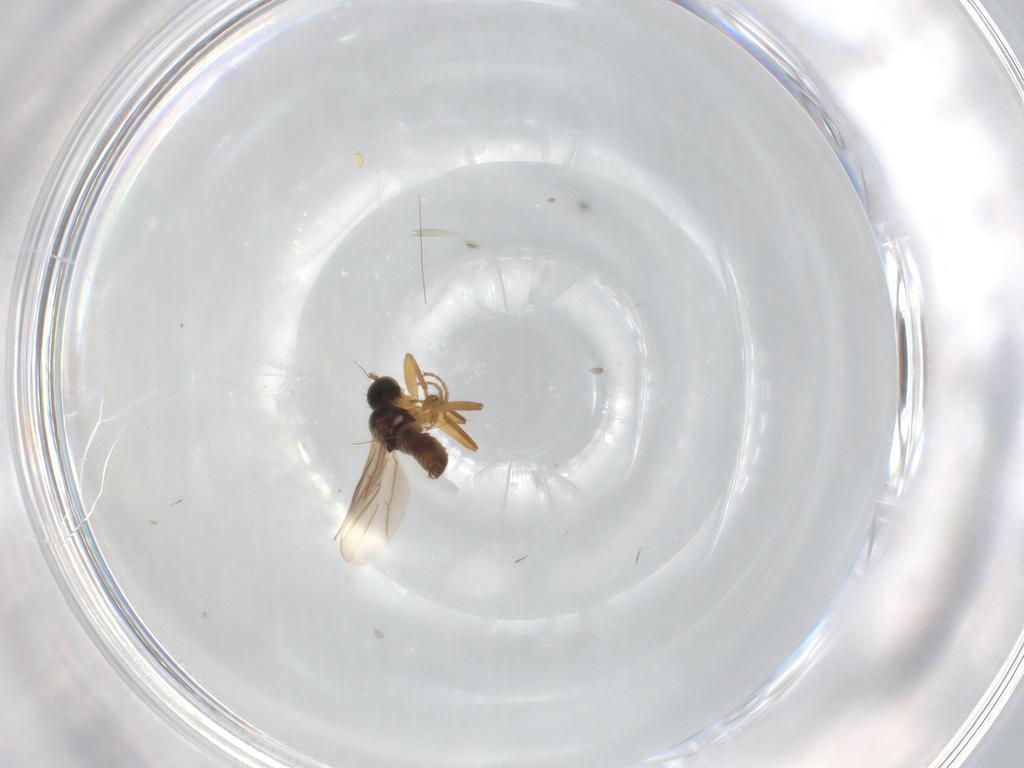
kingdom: Animalia
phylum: Arthropoda
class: Insecta
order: Diptera
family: Hybotidae
